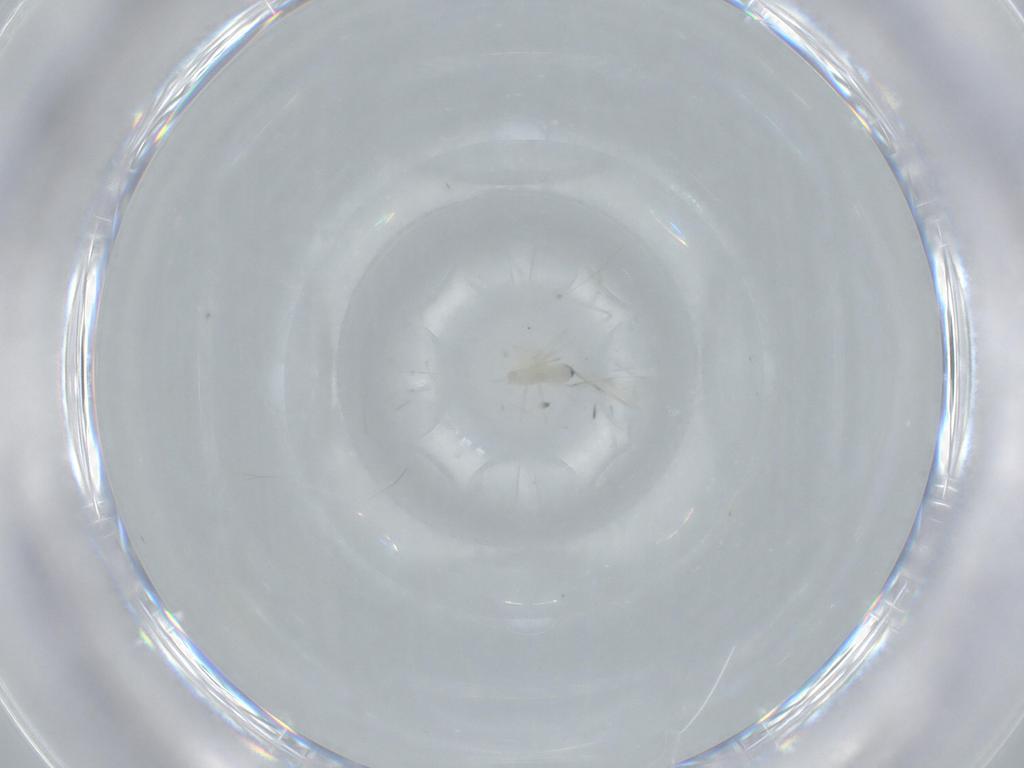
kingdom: Animalia
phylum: Arthropoda
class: Insecta
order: Diptera
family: Cecidomyiidae
